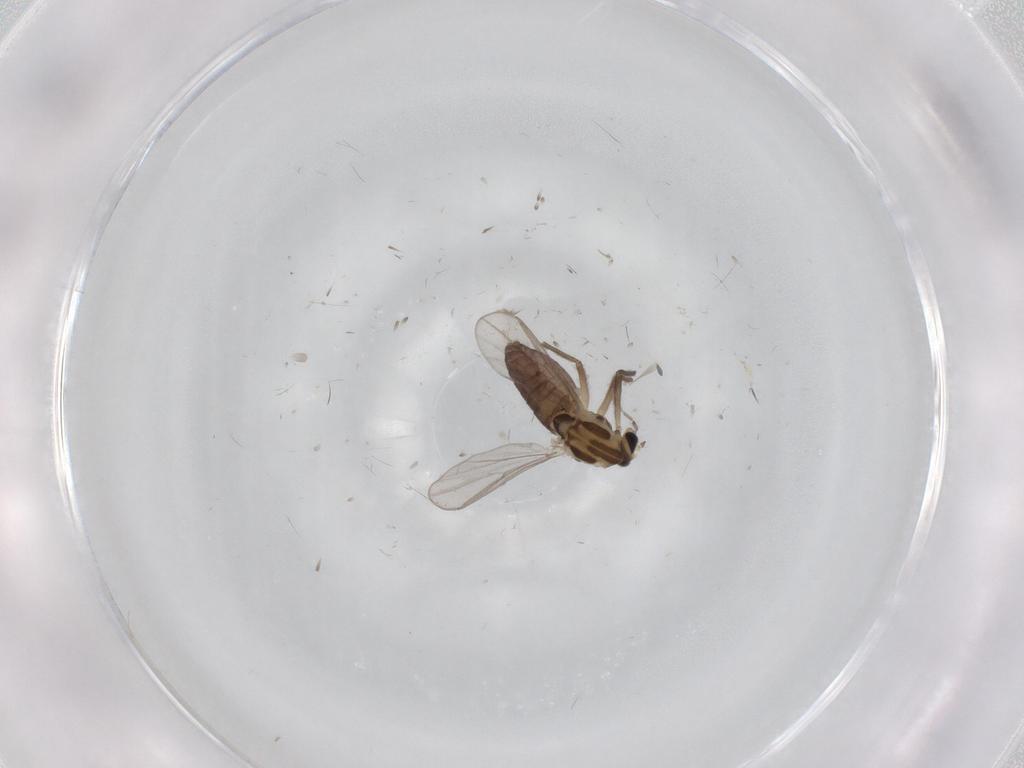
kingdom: Animalia
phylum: Arthropoda
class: Insecta
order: Diptera
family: Chironomidae
